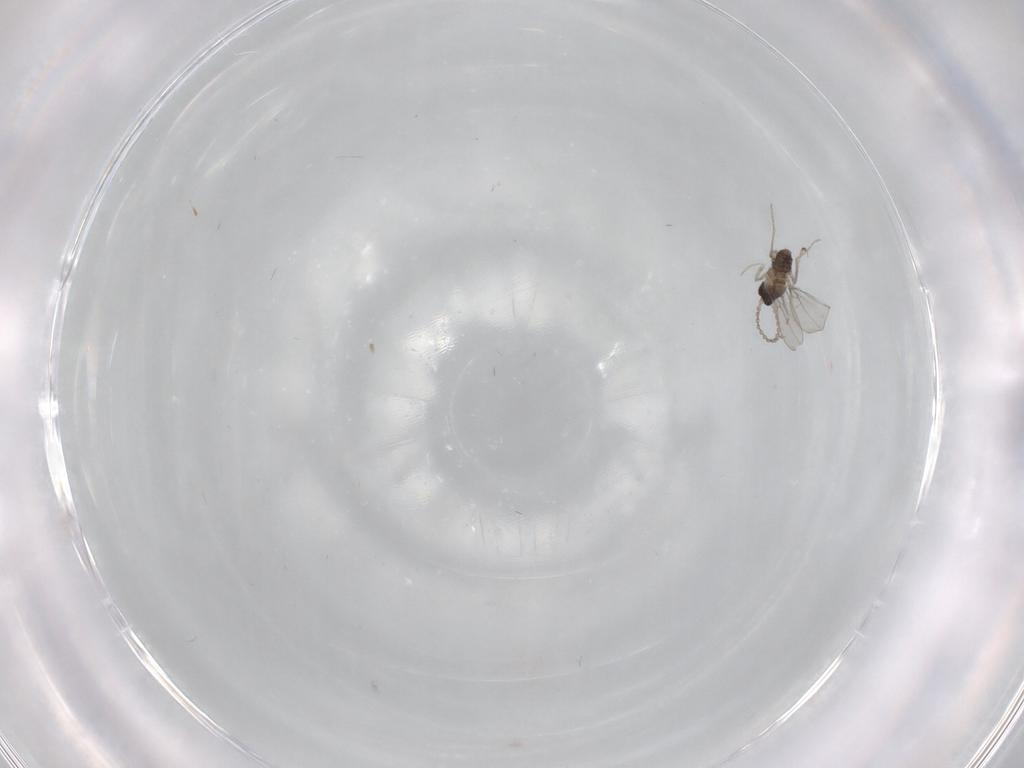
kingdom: Animalia
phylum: Arthropoda
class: Insecta
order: Diptera
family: Cecidomyiidae
